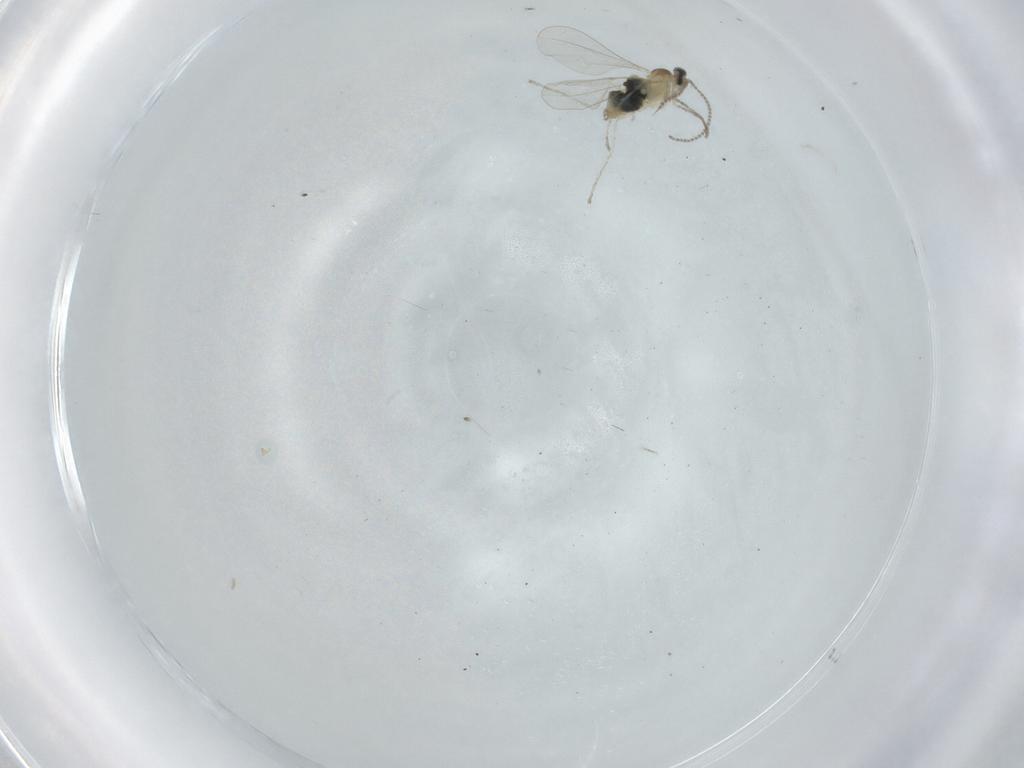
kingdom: Animalia
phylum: Arthropoda
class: Insecta
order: Diptera
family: Cecidomyiidae
